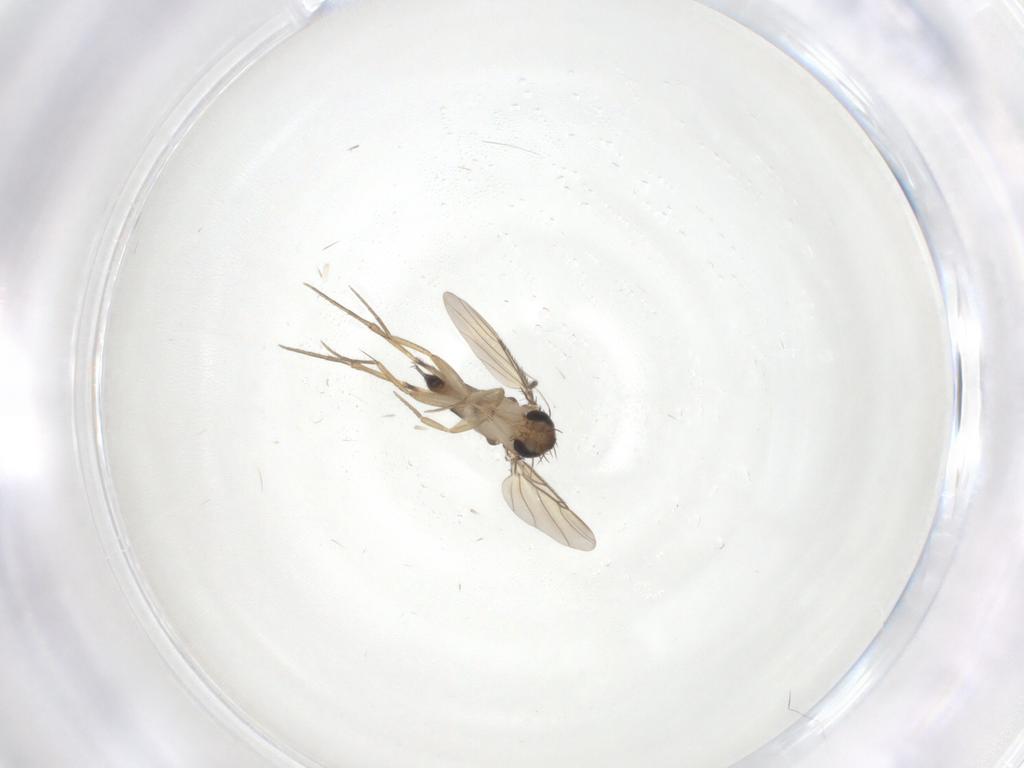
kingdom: Animalia
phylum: Arthropoda
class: Insecta
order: Diptera
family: Phoridae
